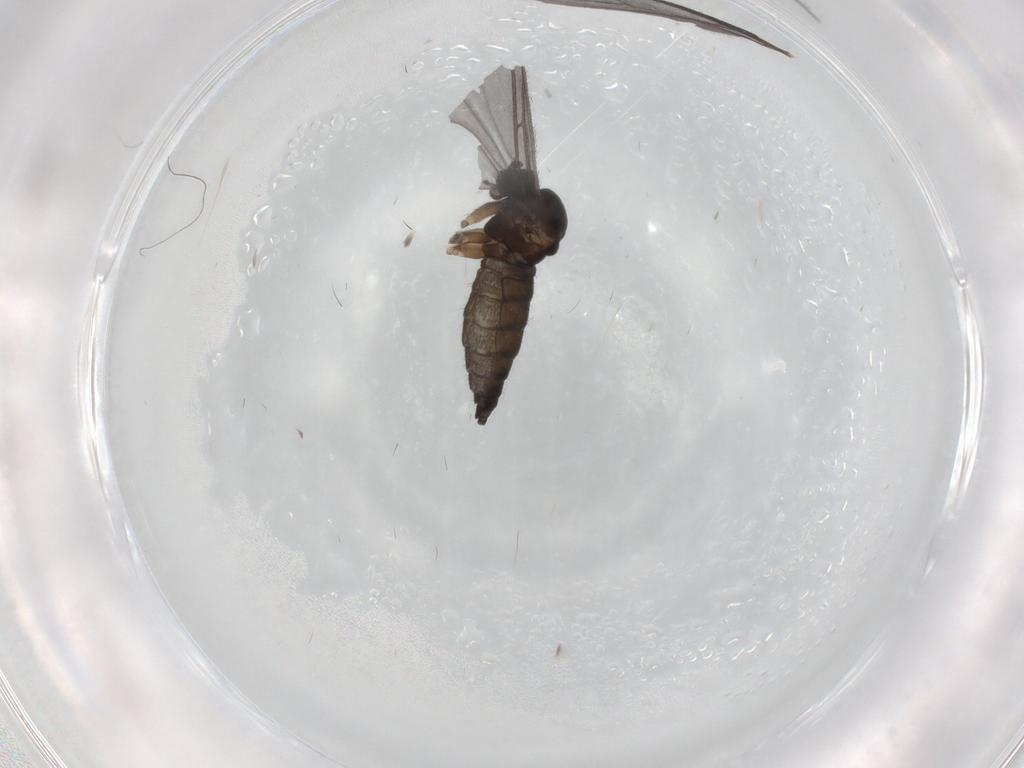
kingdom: Animalia
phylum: Arthropoda
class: Insecta
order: Diptera
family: Sciaridae
